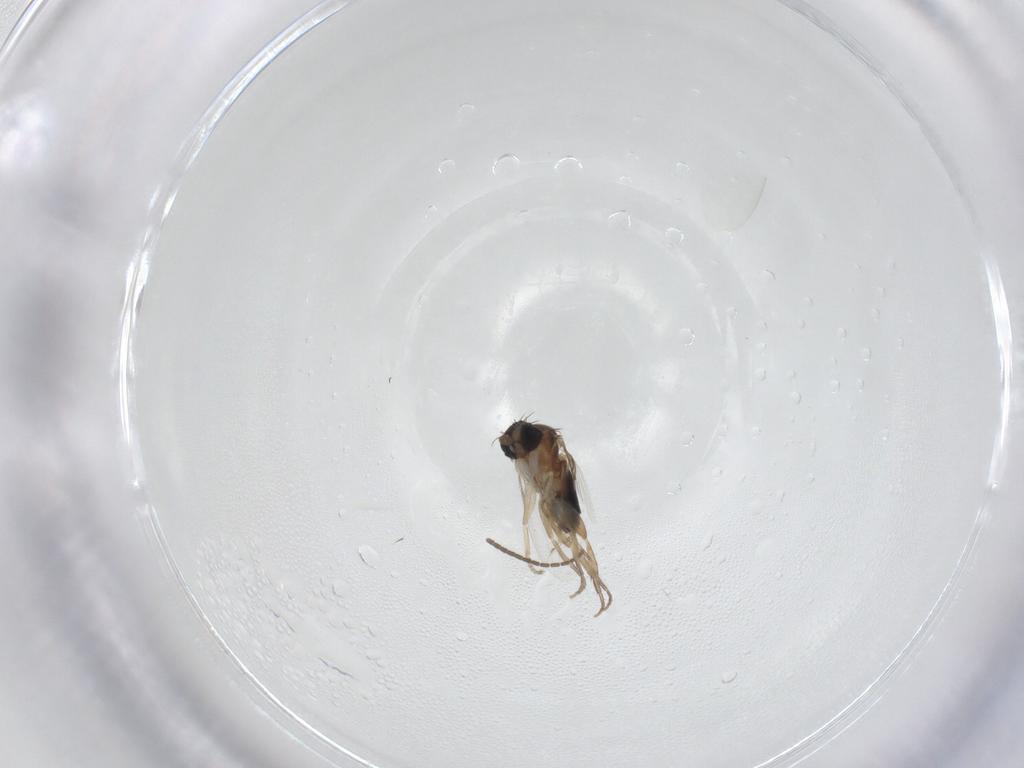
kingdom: Animalia
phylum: Arthropoda
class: Insecta
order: Diptera
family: Phoridae
